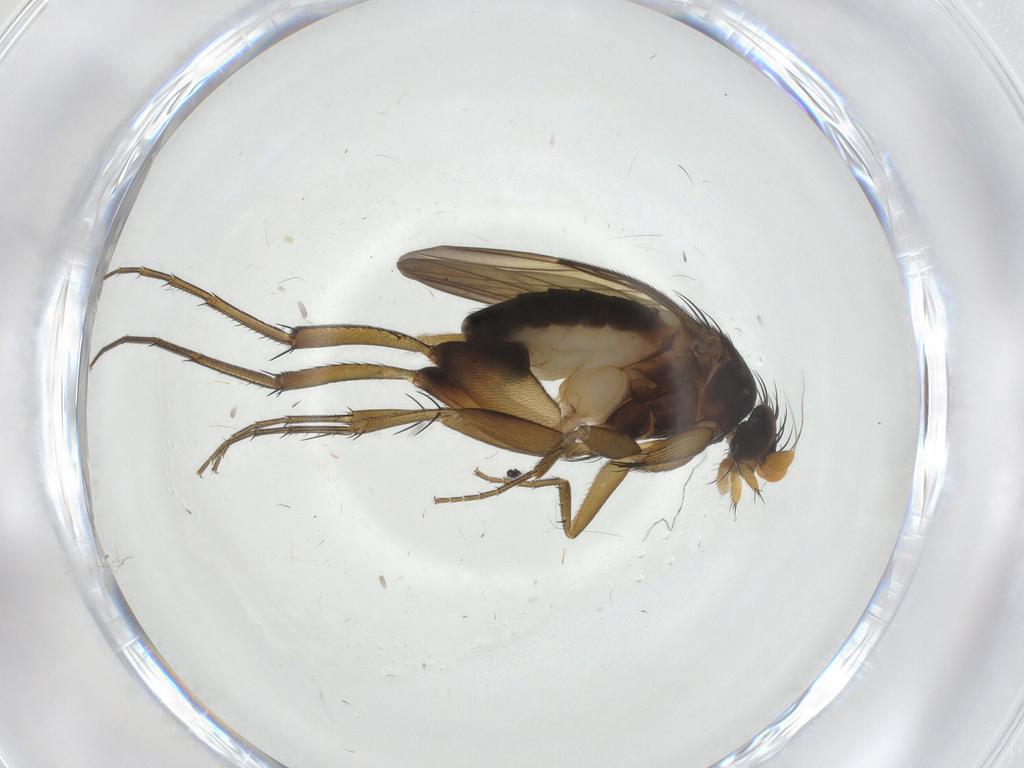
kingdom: Animalia
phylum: Arthropoda
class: Insecta
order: Diptera
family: Phoridae
